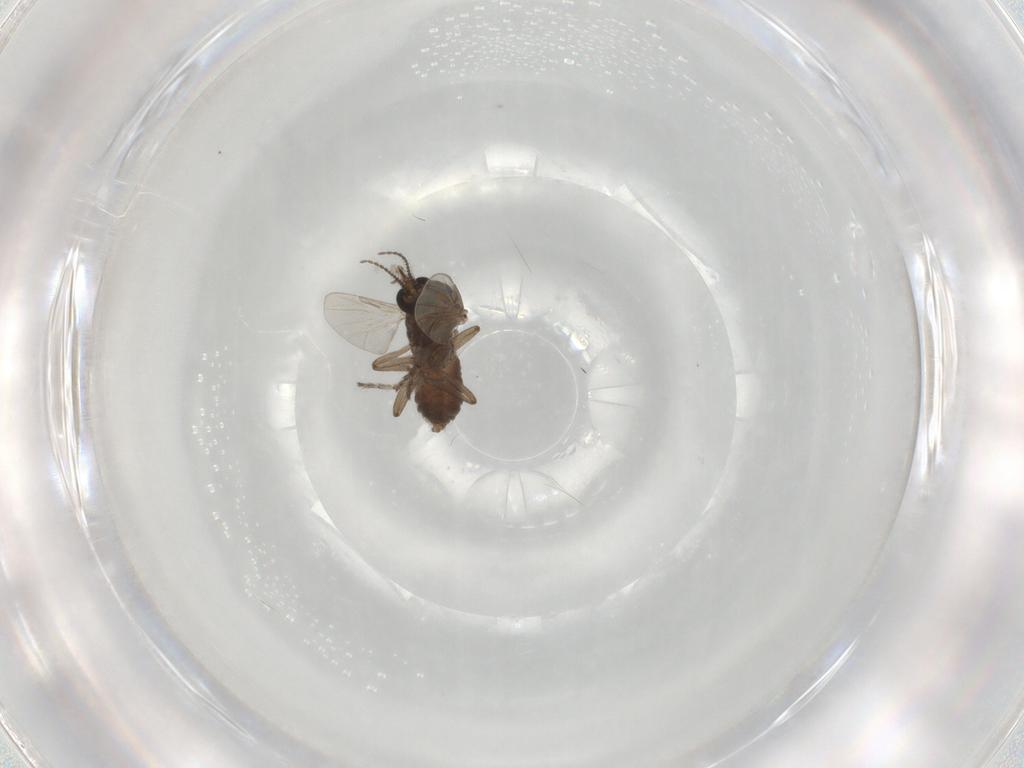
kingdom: Animalia
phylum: Arthropoda
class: Insecta
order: Diptera
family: Ceratopogonidae
